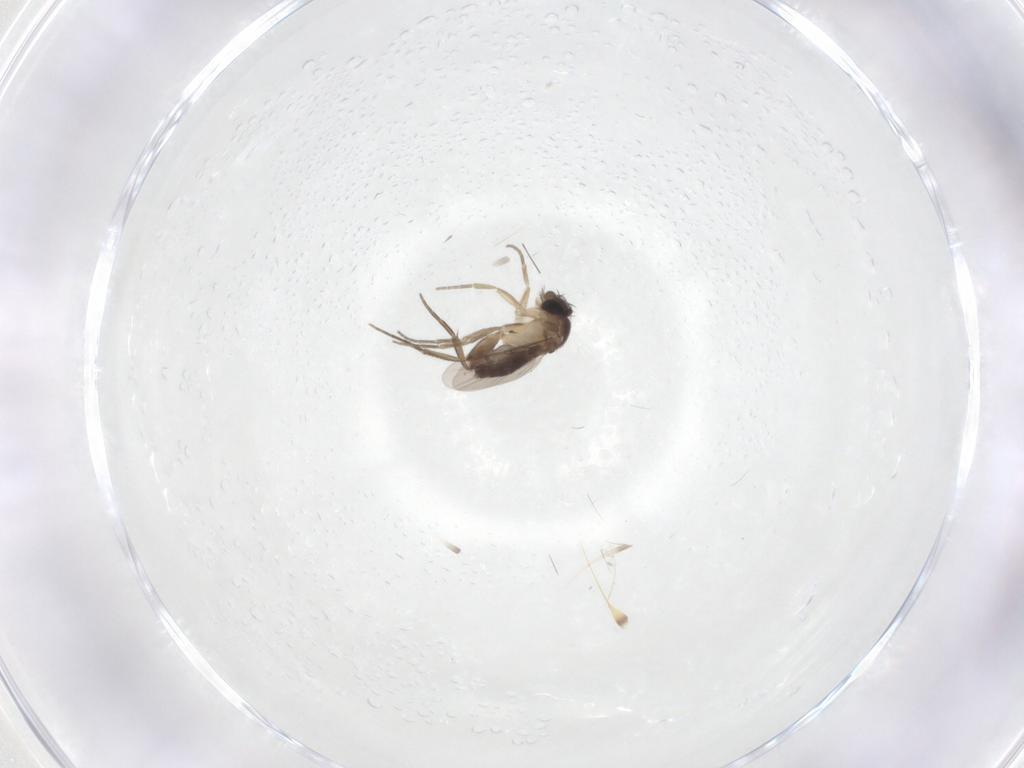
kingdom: Animalia
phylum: Arthropoda
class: Insecta
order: Diptera
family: Phoridae
